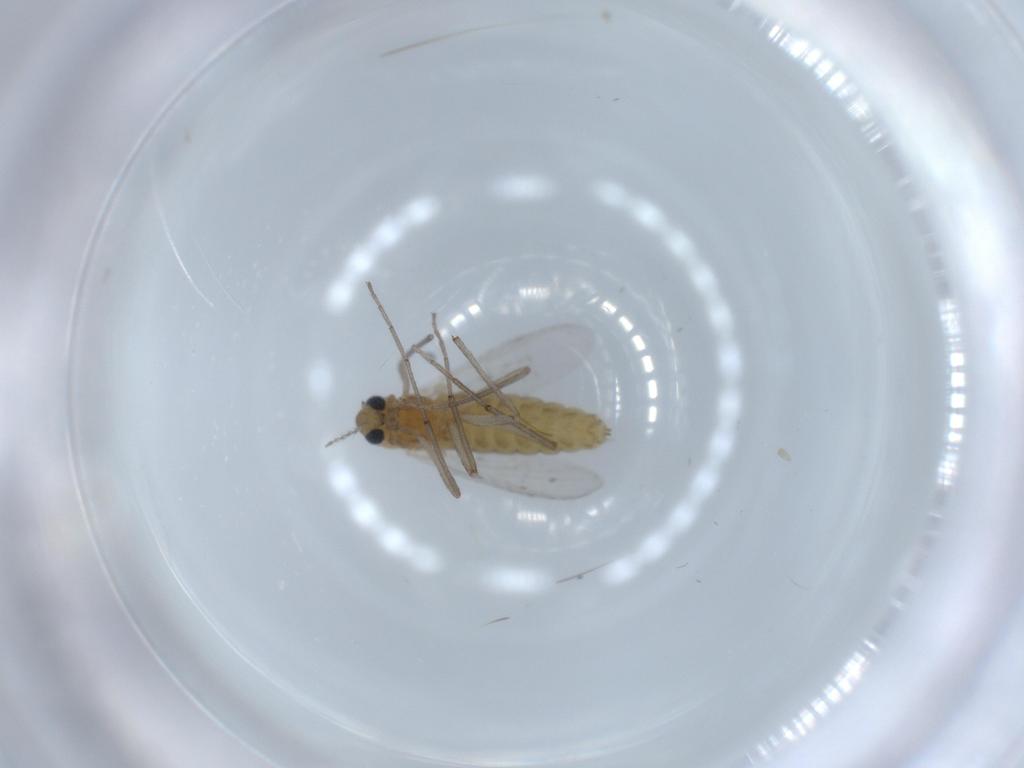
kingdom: Animalia
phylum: Arthropoda
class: Insecta
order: Diptera
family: Chironomidae
